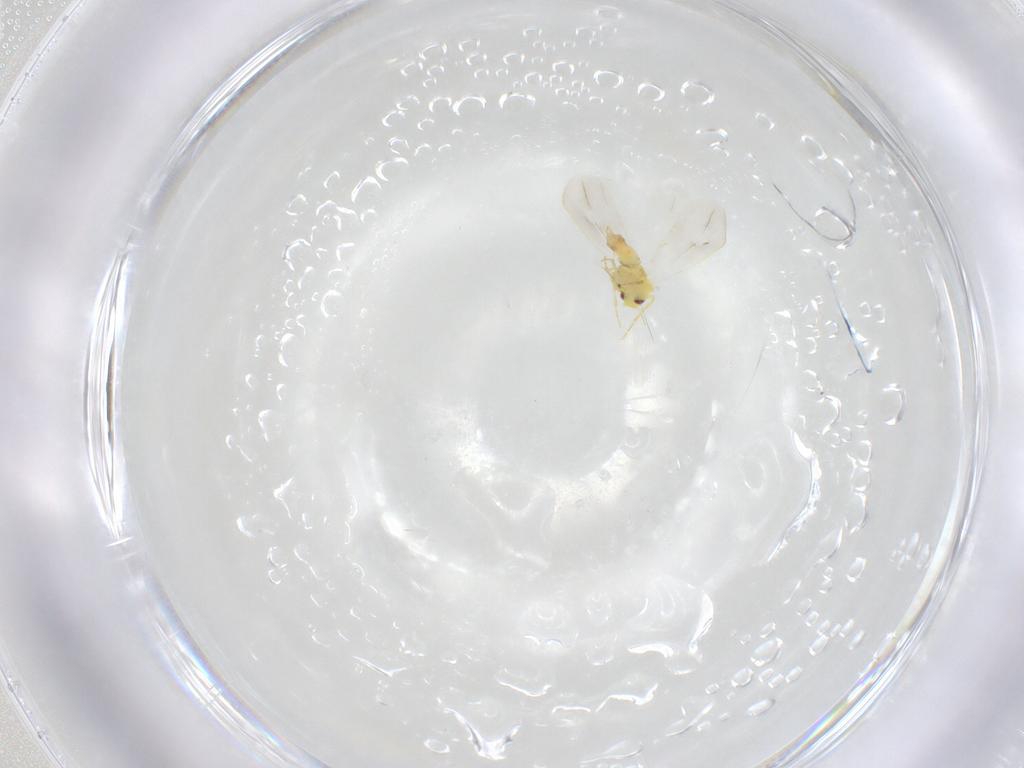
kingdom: Animalia
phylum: Arthropoda
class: Insecta
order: Hemiptera
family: Aleyrodidae
